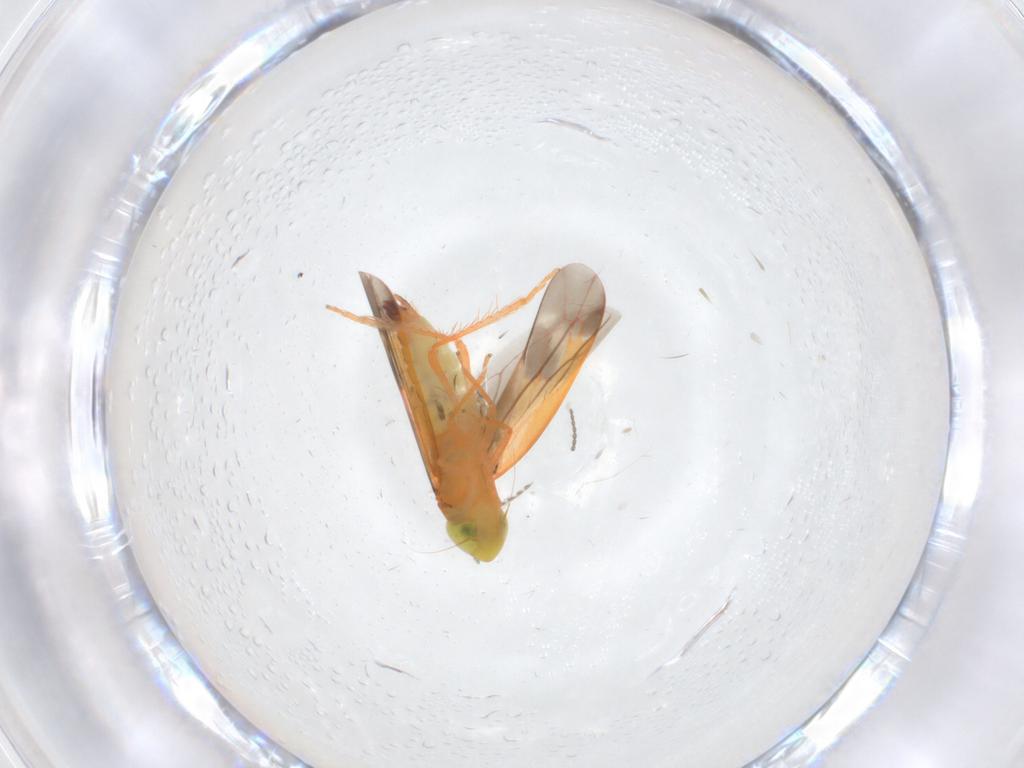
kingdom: Animalia
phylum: Arthropoda
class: Insecta
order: Hemiptera
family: Cicadellidae
